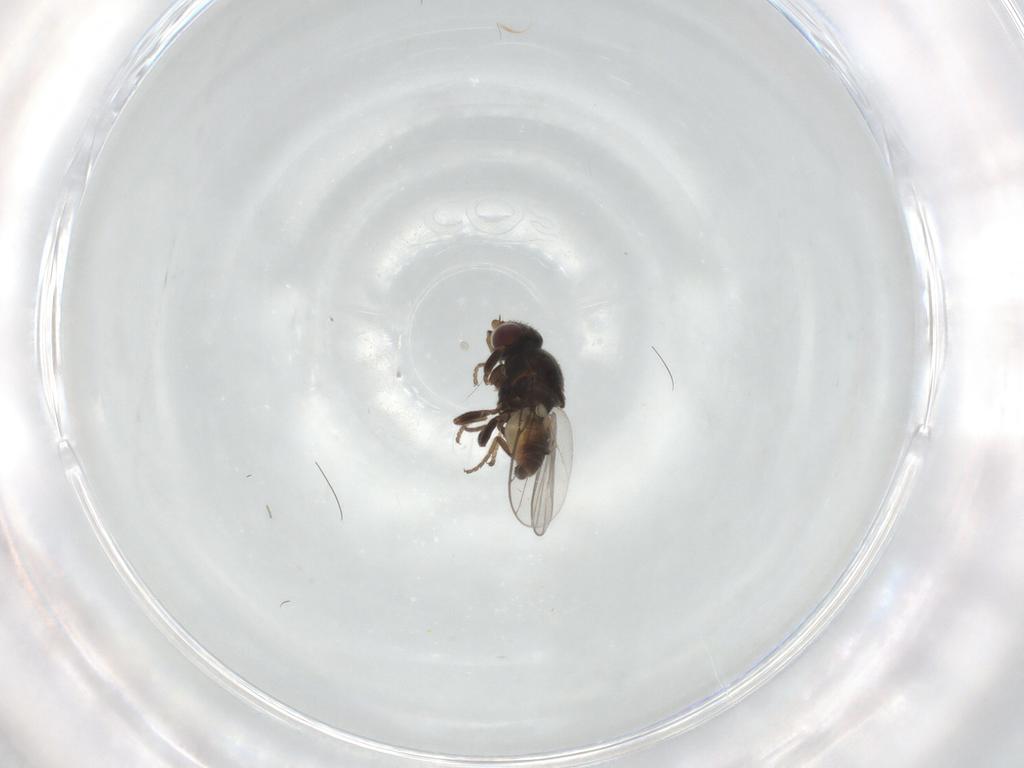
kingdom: Animalia
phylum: Arthropoda
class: Insecta
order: Diptera
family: Chloropidae
